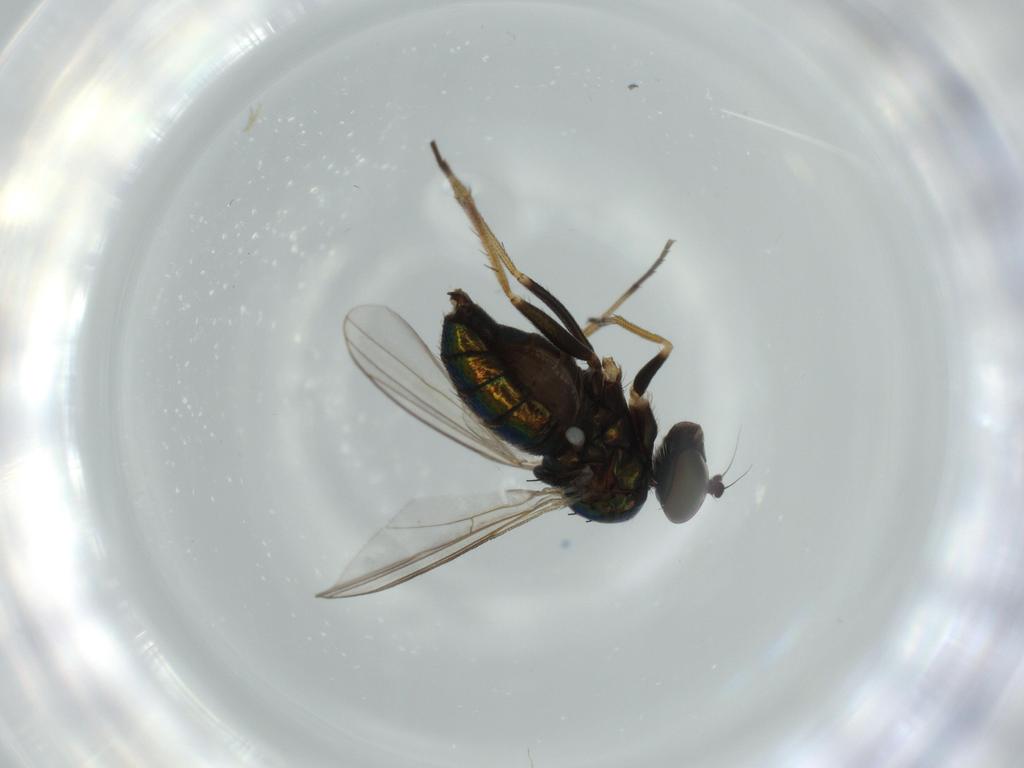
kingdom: Animalia
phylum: Arthropoda
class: Insecta
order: Diptera
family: Dolichopodidae
